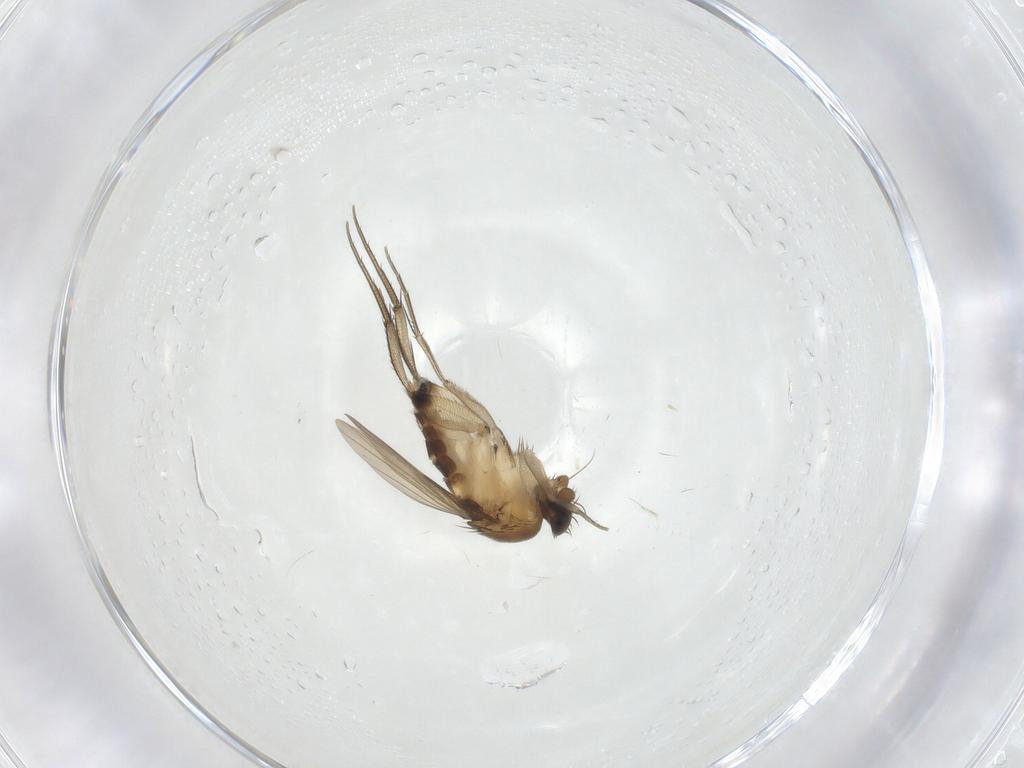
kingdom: Animalia
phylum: Arthropoda
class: Insecta
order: Diptera
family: Phoridae
